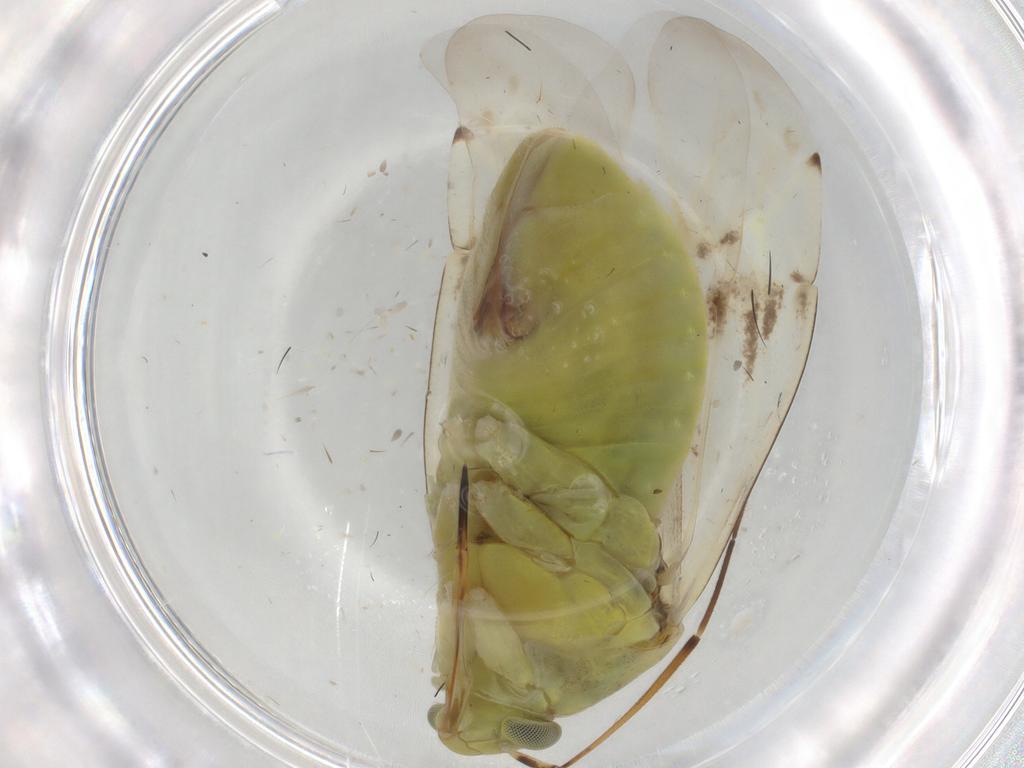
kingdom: Animalia
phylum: Arthropoda
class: Insecta
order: Hemiptera
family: Miridae
